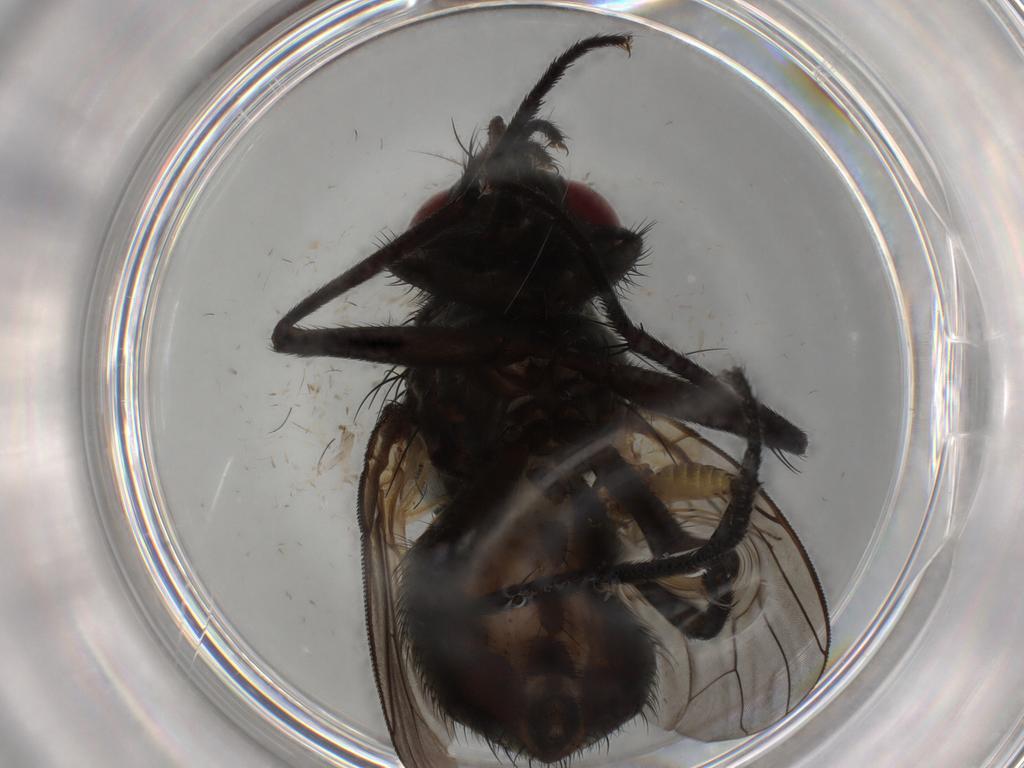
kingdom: Animalia
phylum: Arthropoda
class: Insecta
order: Diptera
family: Muscidae
